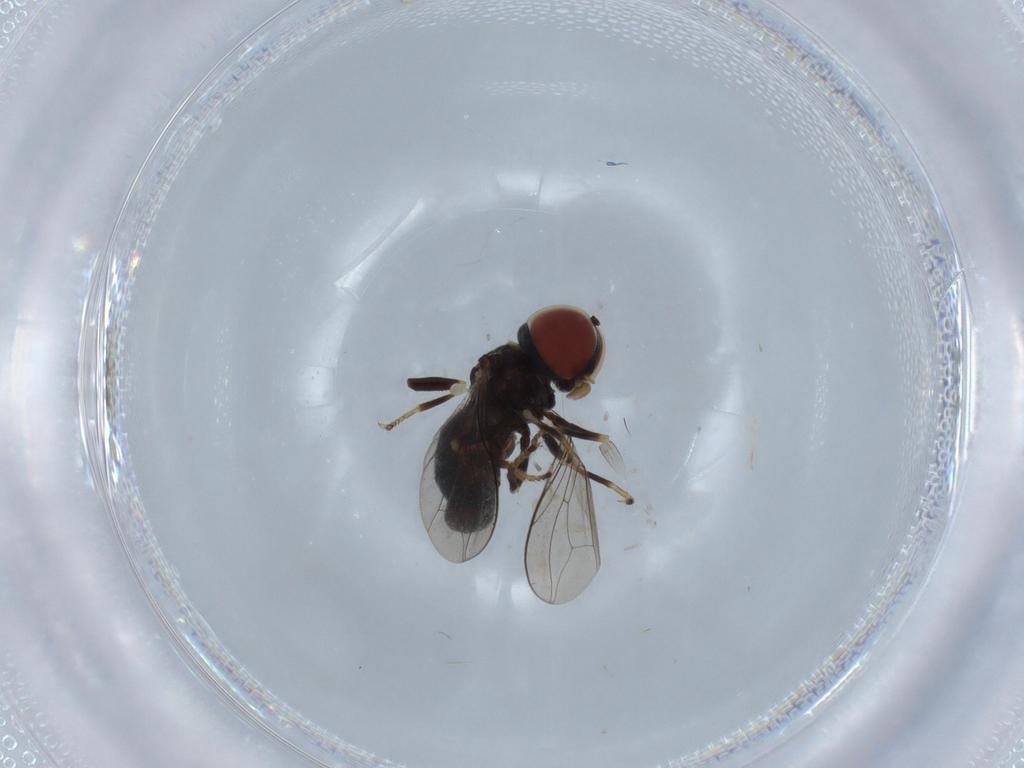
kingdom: Animalia
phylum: Arthropoda
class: Insecta
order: Diptera
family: Pipunculidae
